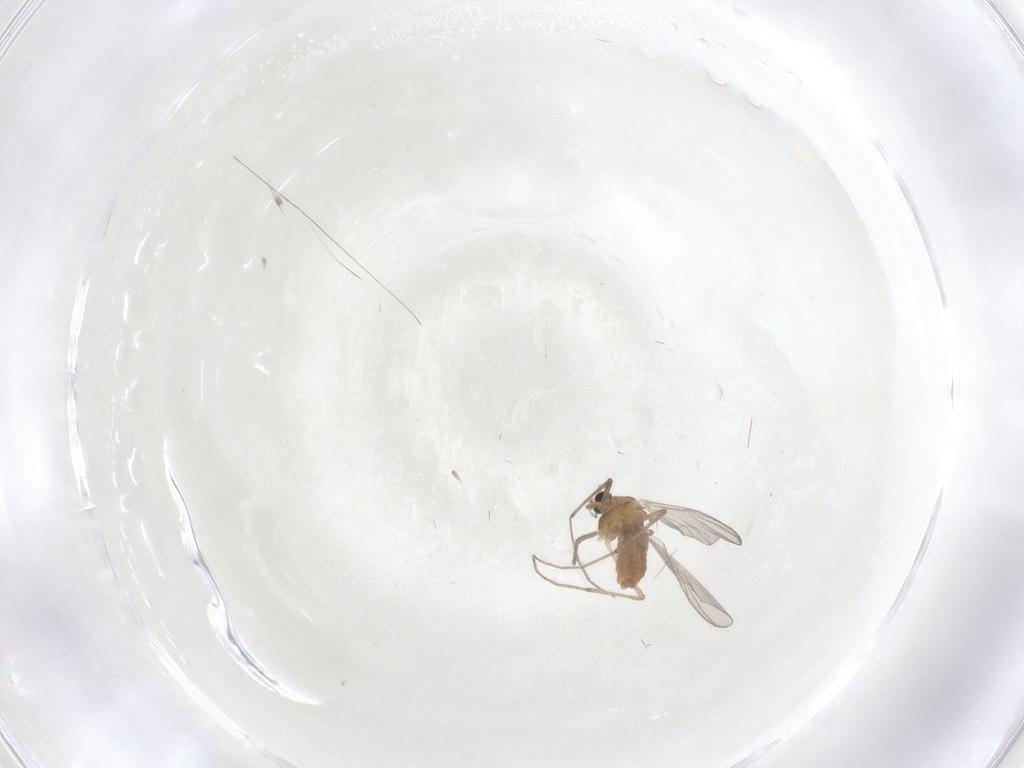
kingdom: Animalia
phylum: Arthropoda
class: Insecta
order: Diptera
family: Chironomidae
